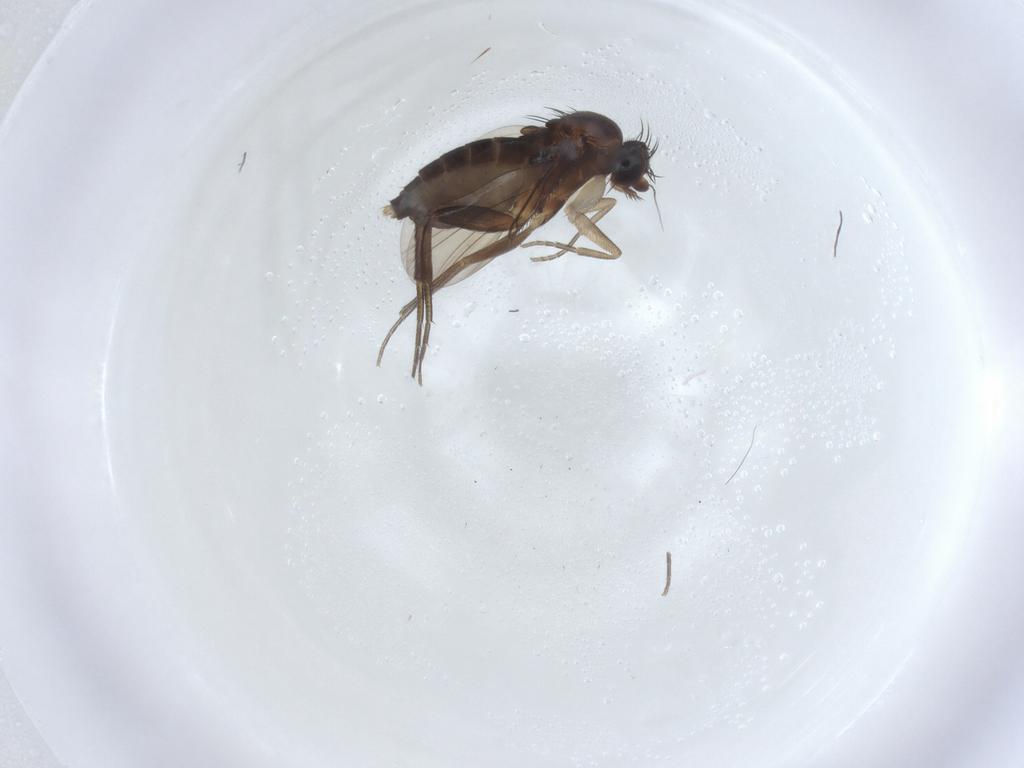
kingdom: Animalia
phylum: Arthropoda
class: Insecta
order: Diptera
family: Phoridae
